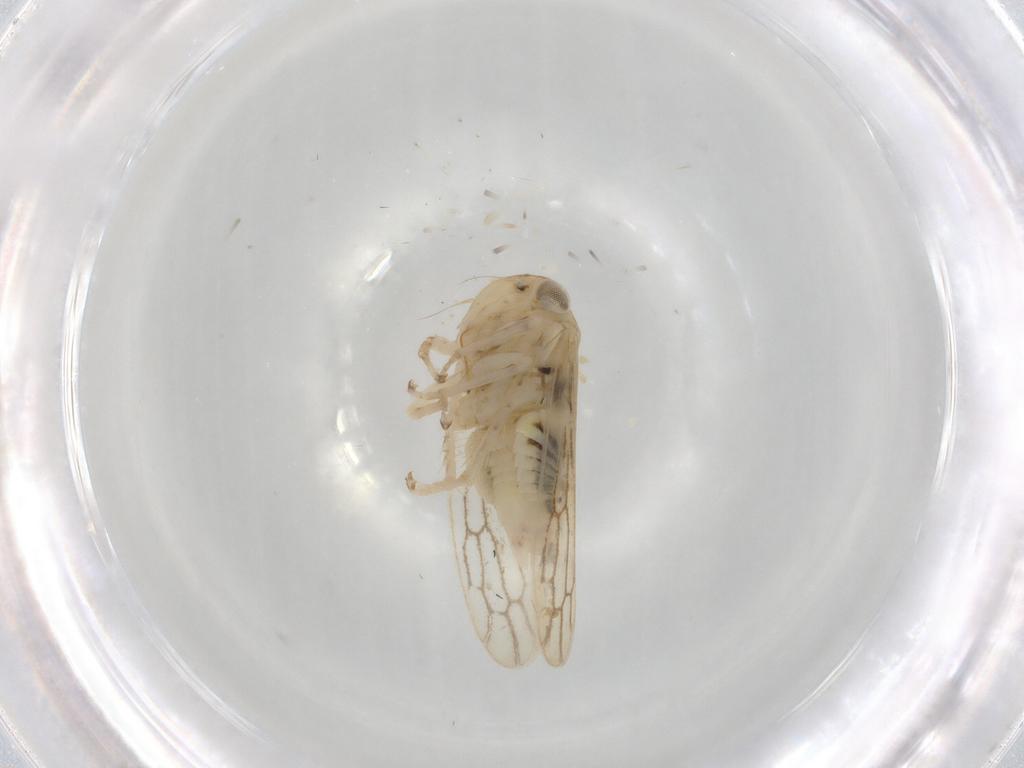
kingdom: Animalia
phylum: Arthropoda
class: Insecta
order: Hemiptera
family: Cicadellidae
